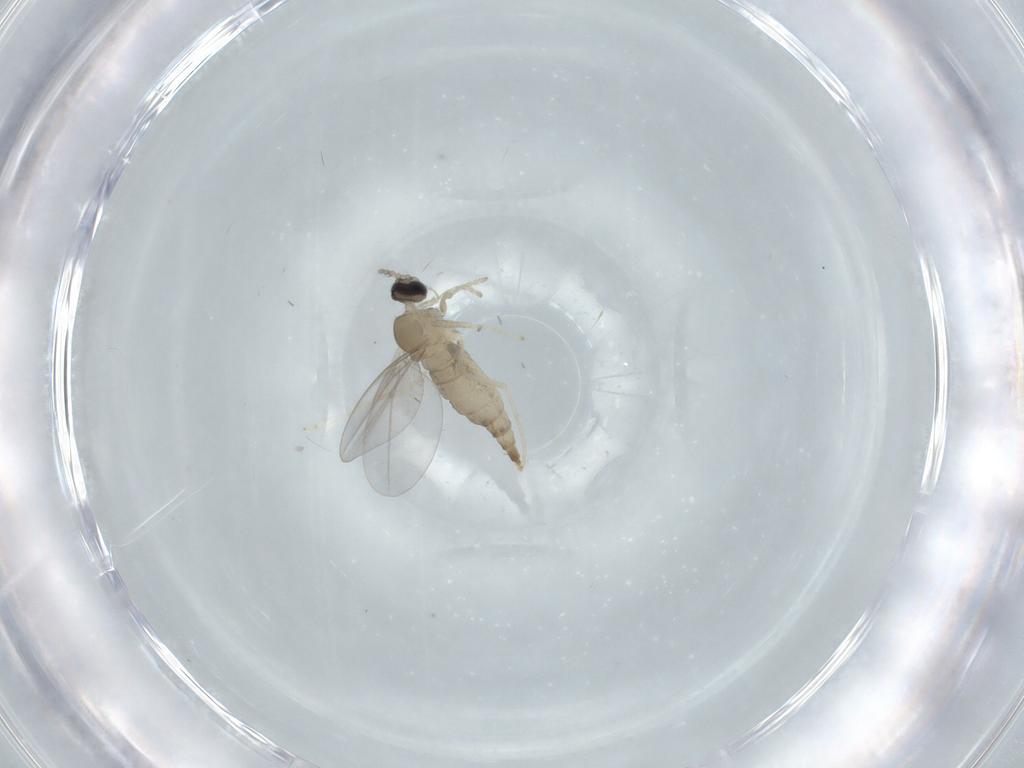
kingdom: Animalia
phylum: Arthropoda
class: Insecta
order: Diptera
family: Cecidomyiidae
